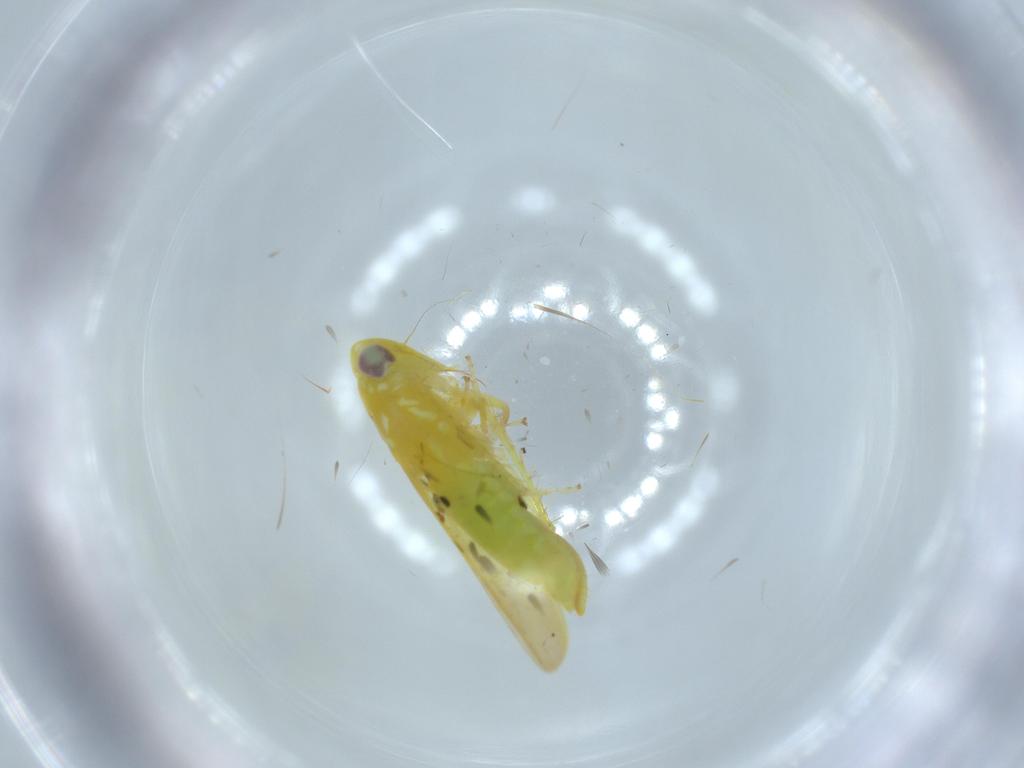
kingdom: Animalia
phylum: Arthropoda
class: Insecta
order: Hemiptera
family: Cicadellidae
